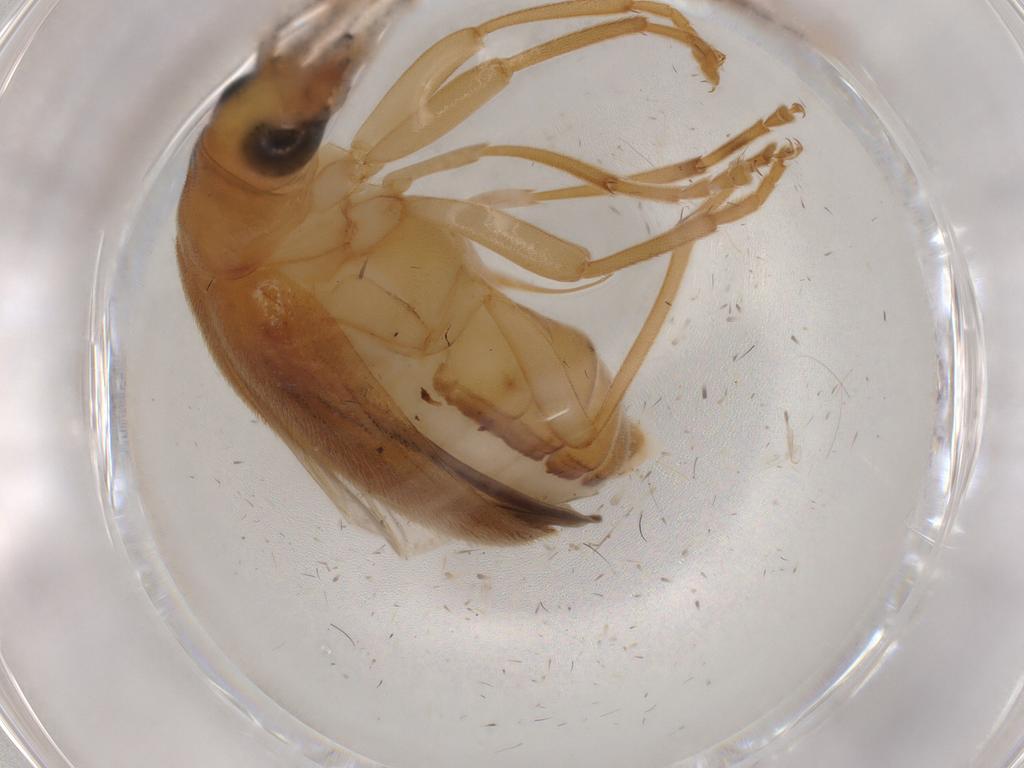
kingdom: Animalia
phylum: Arthropoda
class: Insecta
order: Coleoptera
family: Oedemeridae
